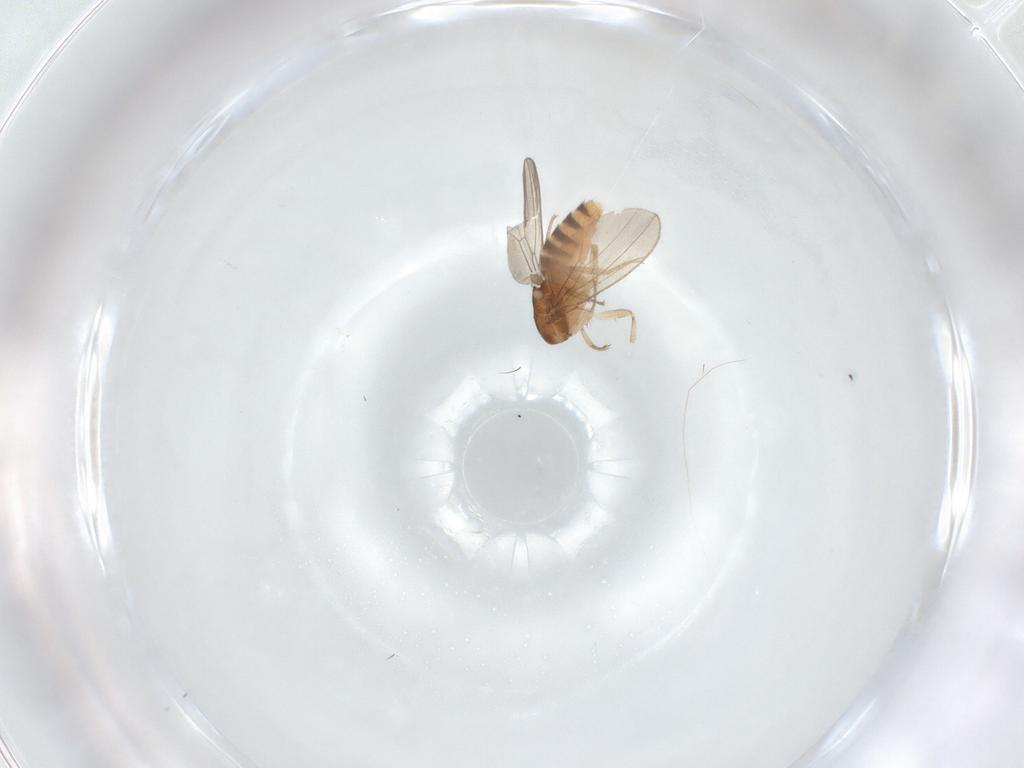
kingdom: Animalia
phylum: Arthropoda
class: Insecta
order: Diptera
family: Drosophilidae
